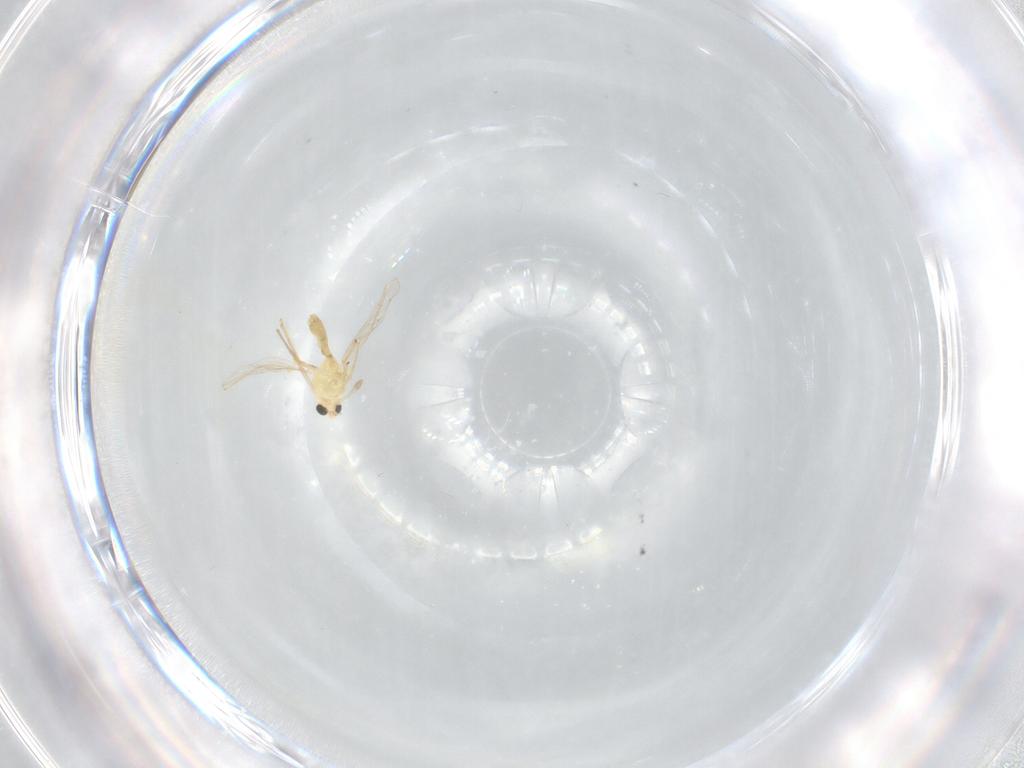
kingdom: Animalia
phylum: Arthropoda
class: Insecta
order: Diptera
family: Chironomidae
